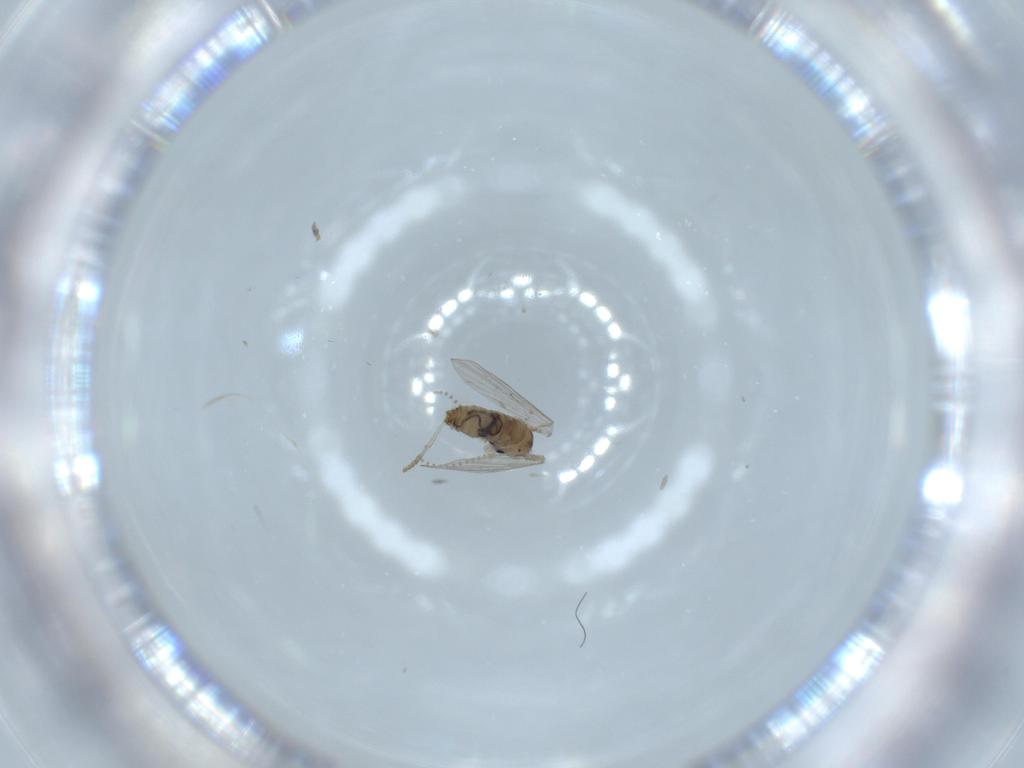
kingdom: Animalia
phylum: Arthropoda
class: Insecta
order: Diptera
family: Psychodidae
